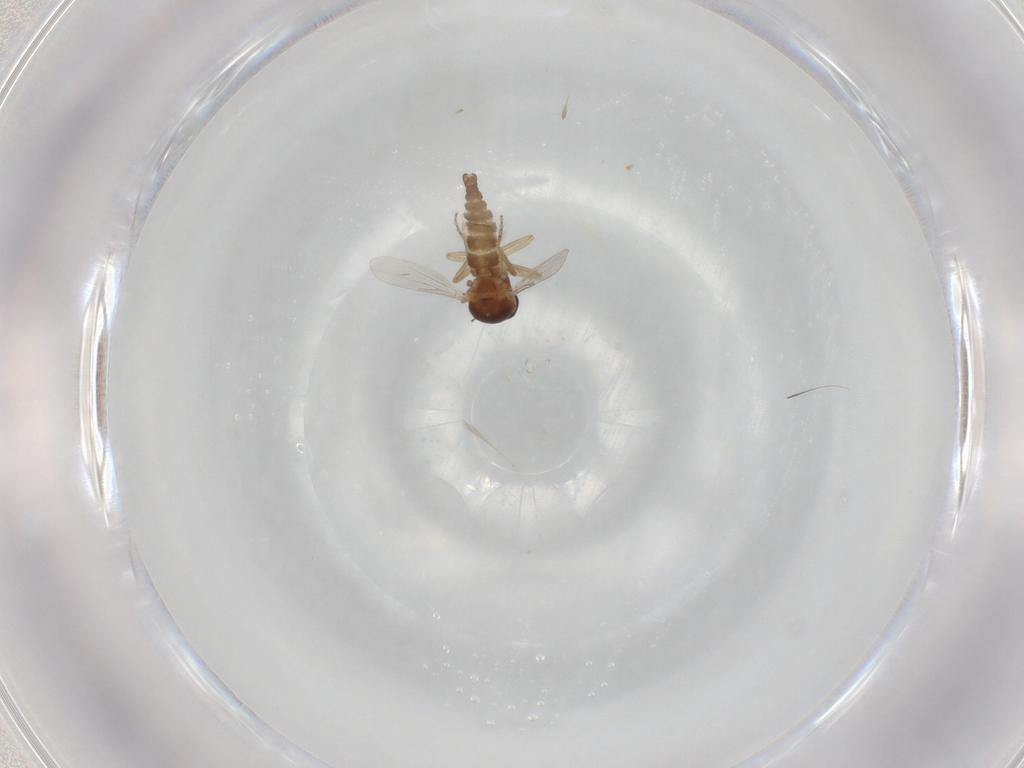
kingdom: Animalia
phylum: Arthropoda
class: Insecta
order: Diptera
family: Ceratopogonidae
